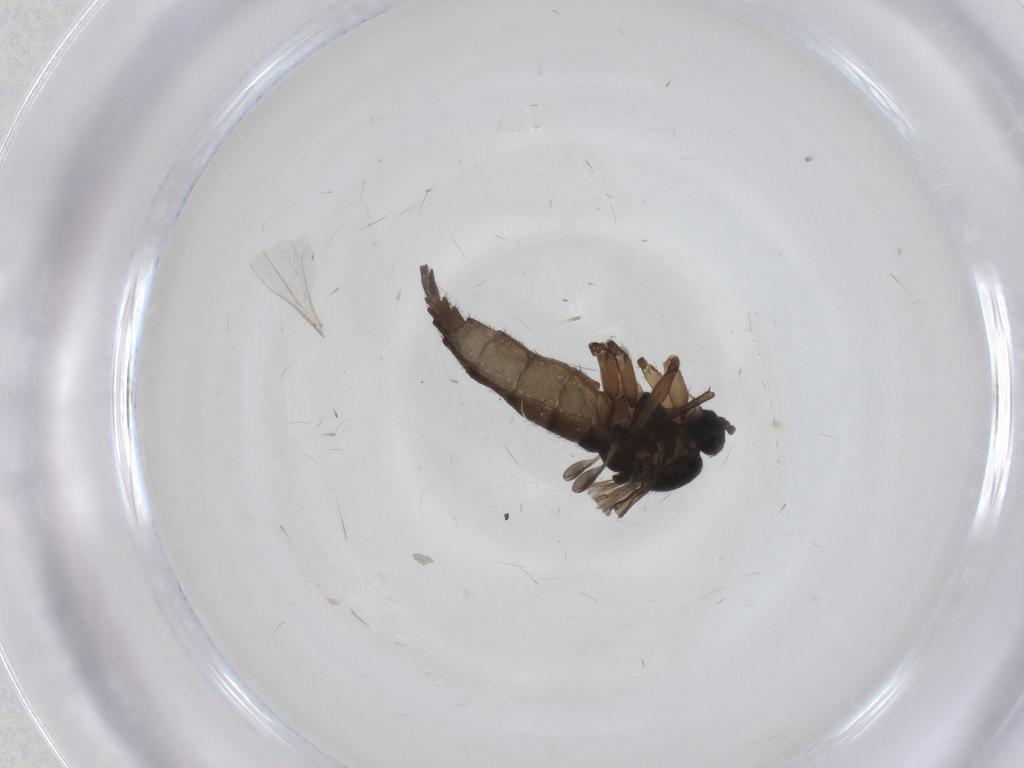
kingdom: Animalia
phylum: Arthropoda
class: Insecta
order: Diptera
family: Sciaridae
